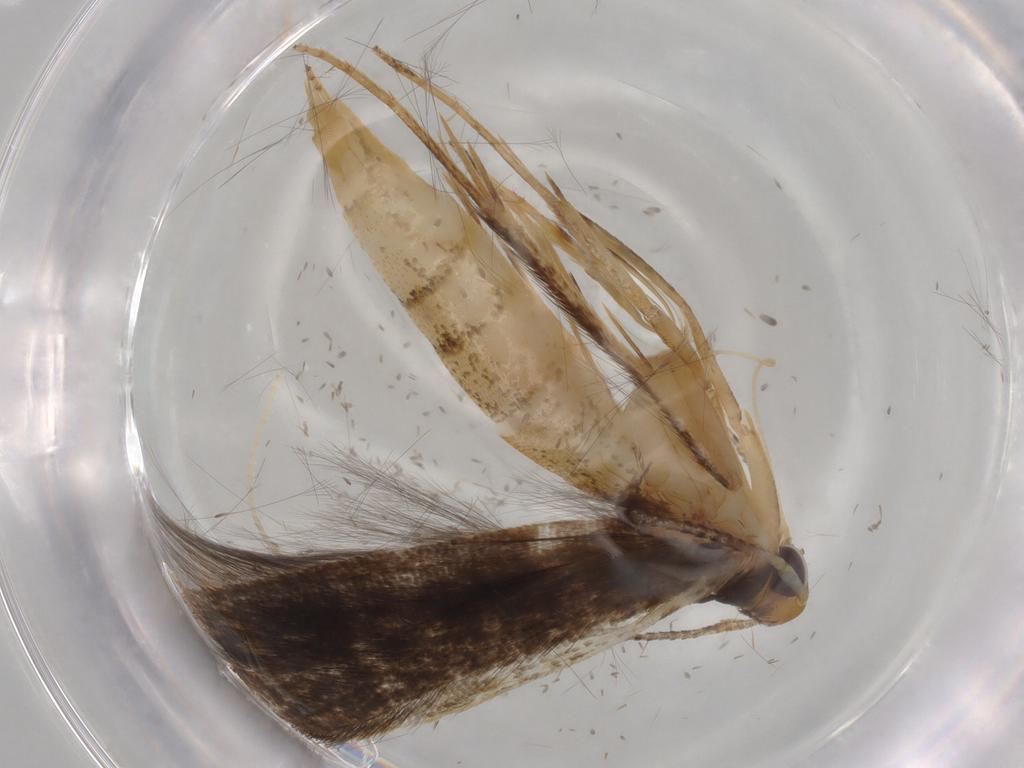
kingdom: Animalia
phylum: Arthropoda
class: Insecta
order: Lepidoptera
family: Pterolonchidae
